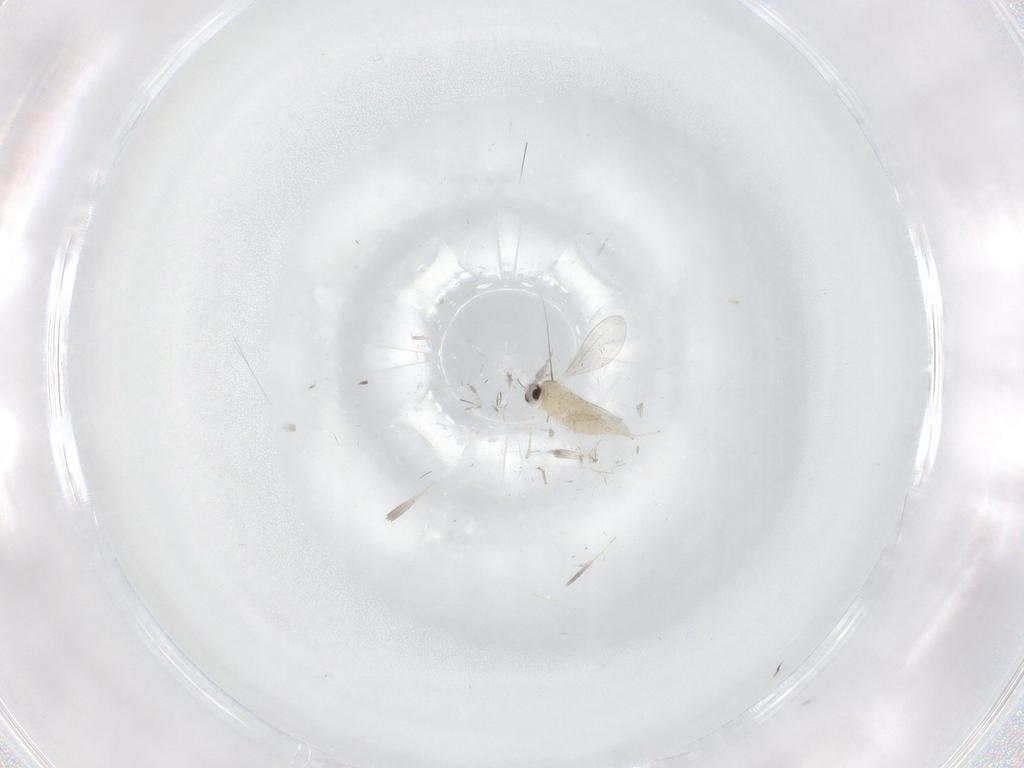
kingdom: Animalia
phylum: Arthropoda
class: Insecta
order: Diptera
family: Cecidomyiidae
